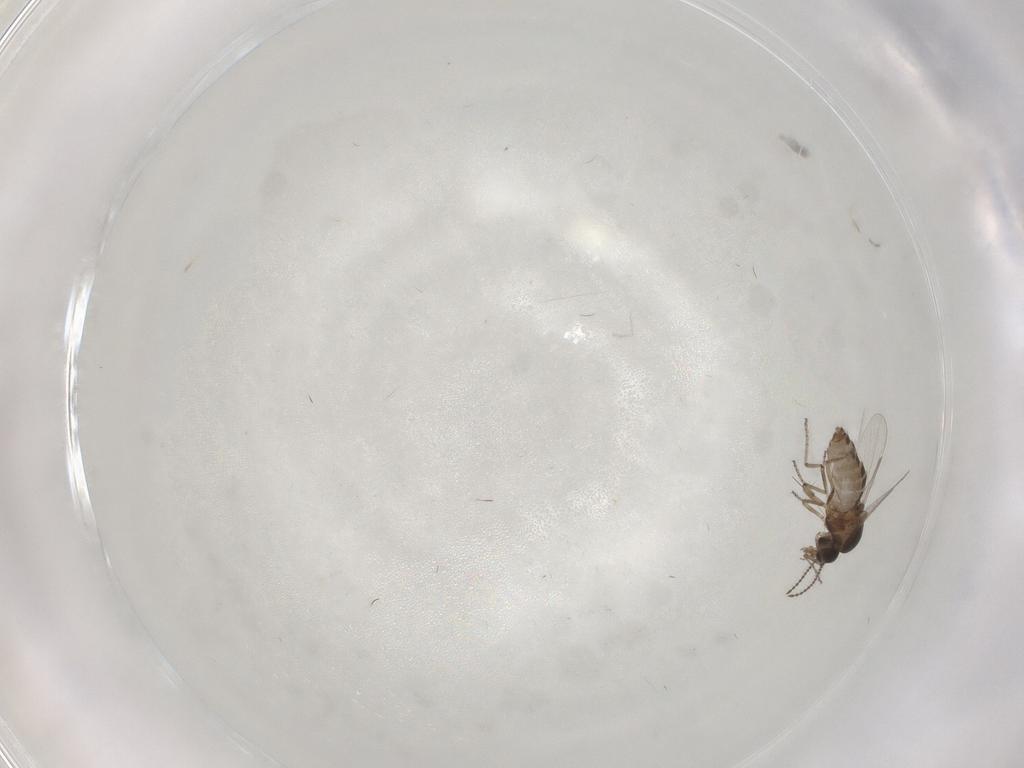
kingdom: Animalia
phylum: Arthropoda
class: Insecta
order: Diptera
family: Ceratopogonidae
